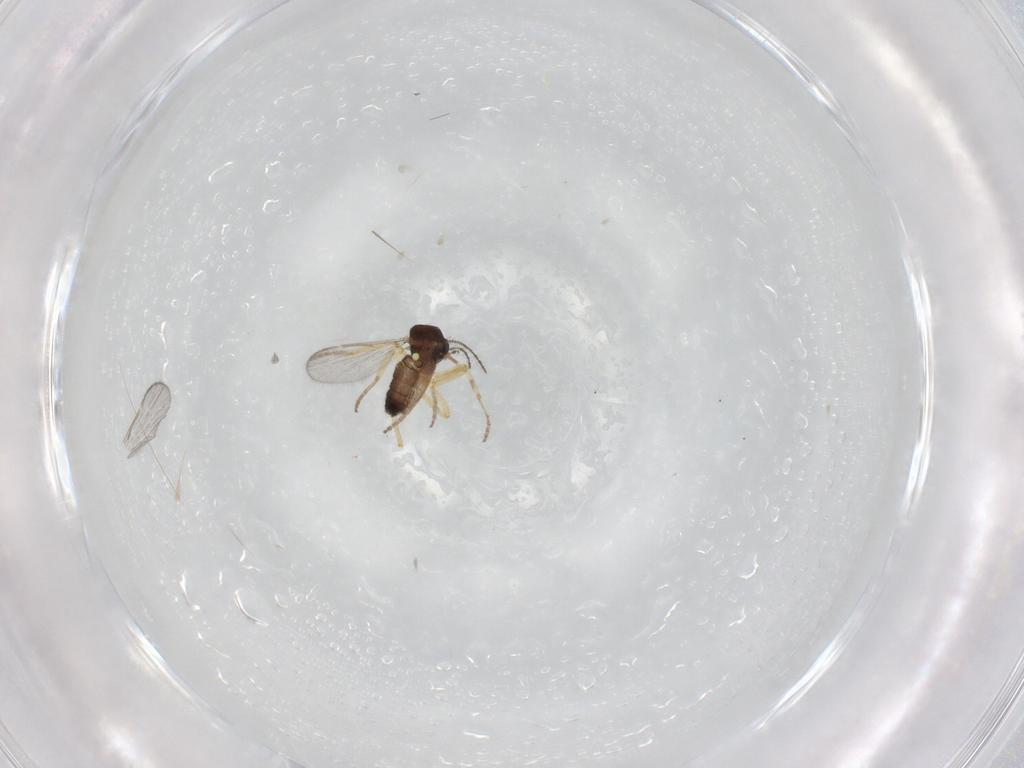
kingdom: Animalia
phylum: Arthropoda
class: Insecta
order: Diptera
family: Ceratopogonidae
